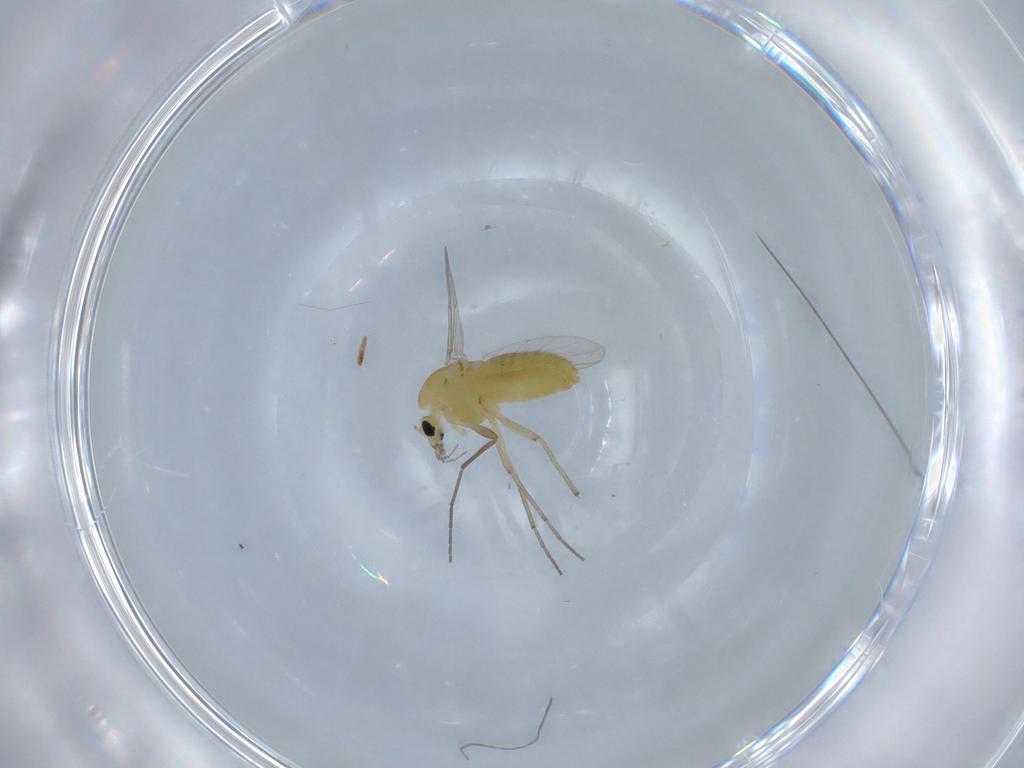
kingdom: Animalia
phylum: Arthropoda
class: Insecta
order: Diptera
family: Chironomidae
